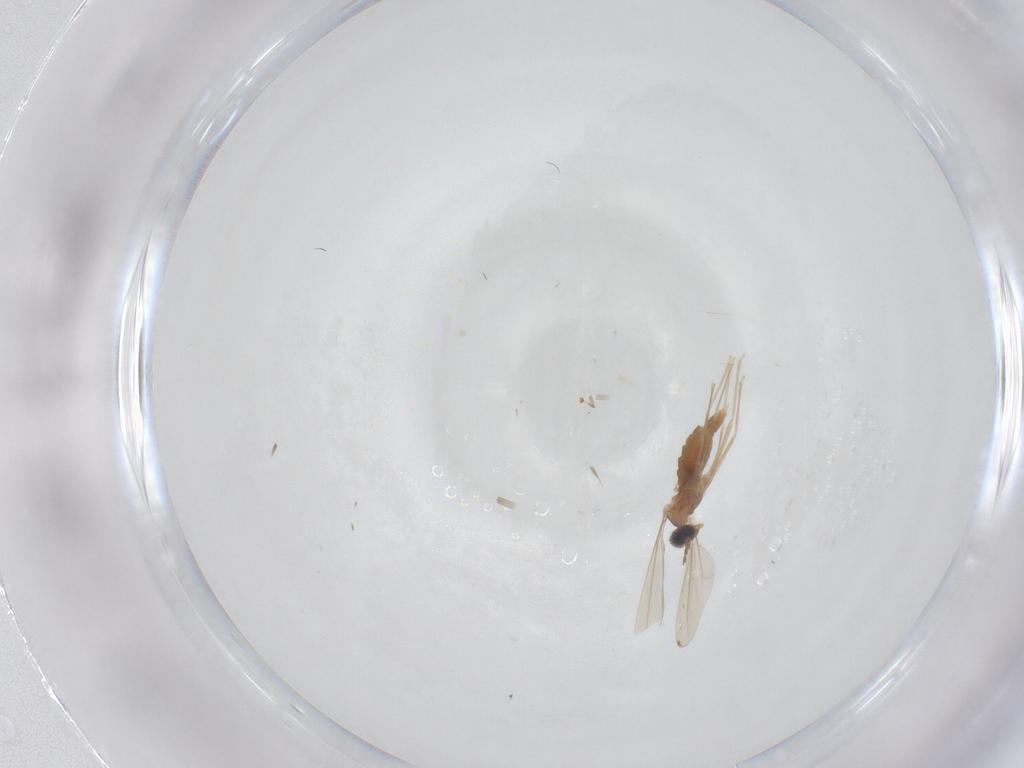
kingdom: Animalia
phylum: Arthropoda
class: Insecta
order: Diptera
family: Cecidomyiidae
